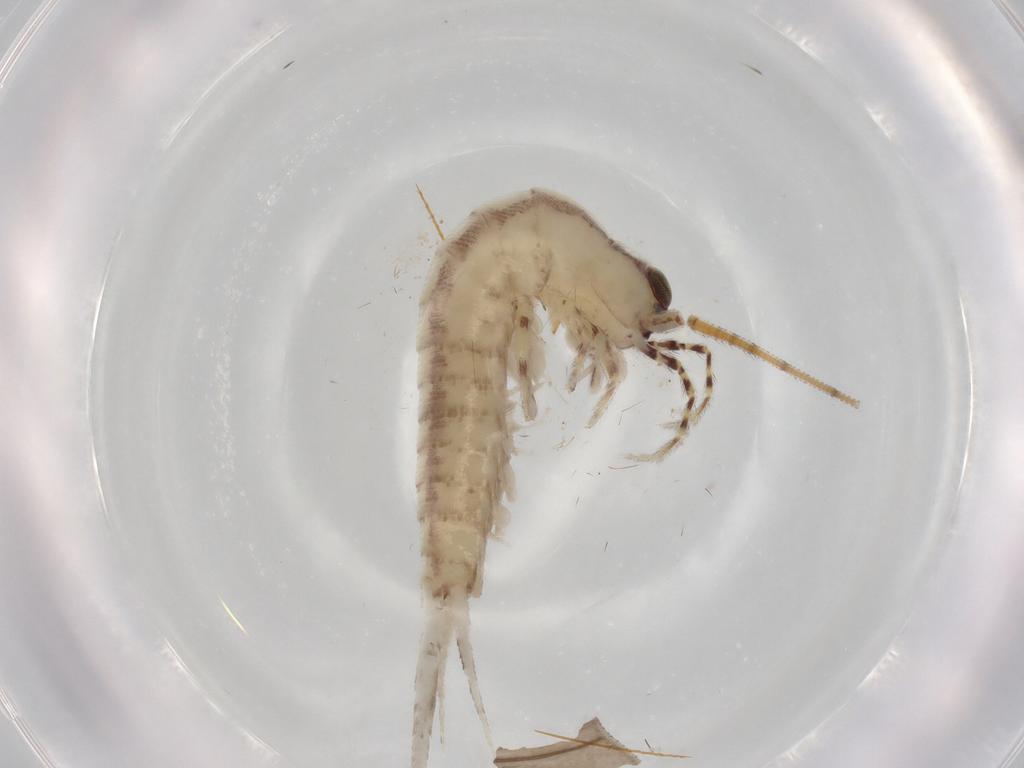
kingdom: Animalia
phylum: Arthropoda
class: Insecta
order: Archaeognatha
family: Machilidae
